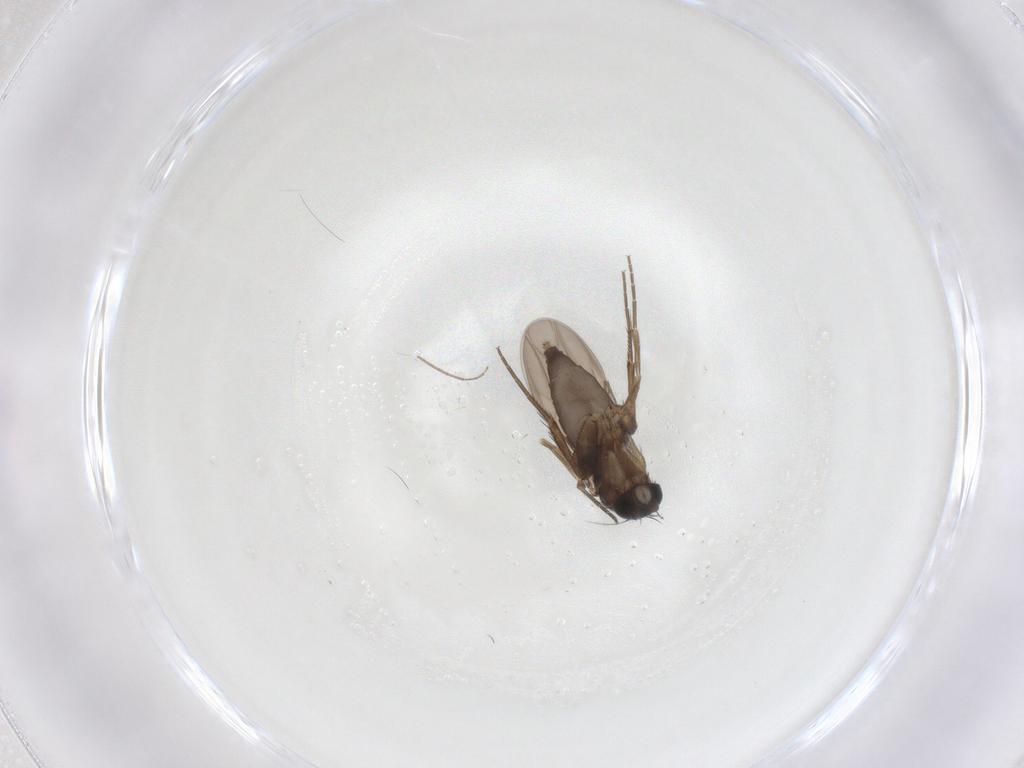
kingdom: Animalia
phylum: Arthropoda
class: Insecta
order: Diptera
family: Phoridae
